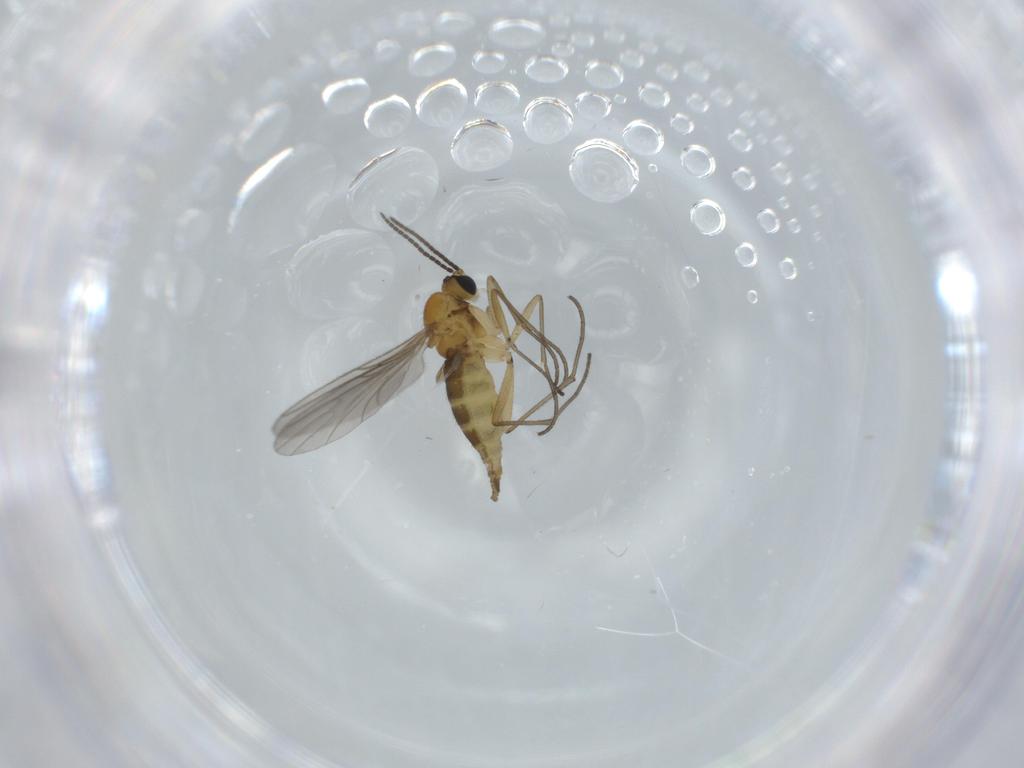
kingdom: Animalia
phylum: Arthropoda
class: Insecta
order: Diptera
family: Sciaridae
